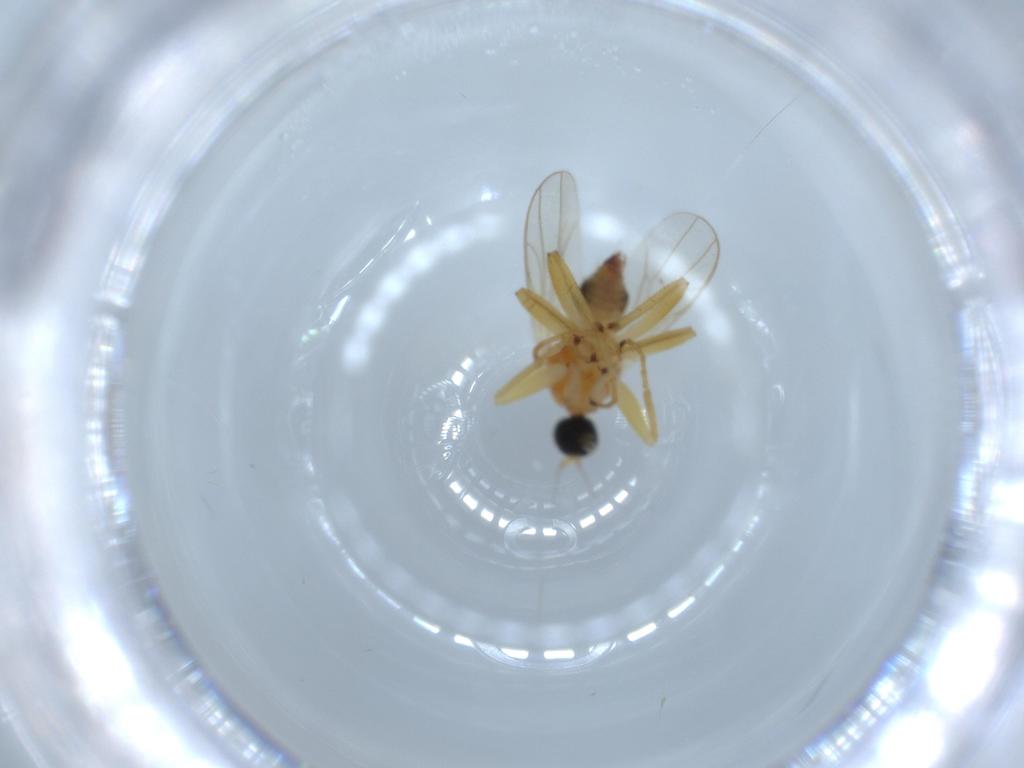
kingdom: Animalia
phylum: Arthropoda
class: Insecta
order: Diptera
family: Hybotidae
